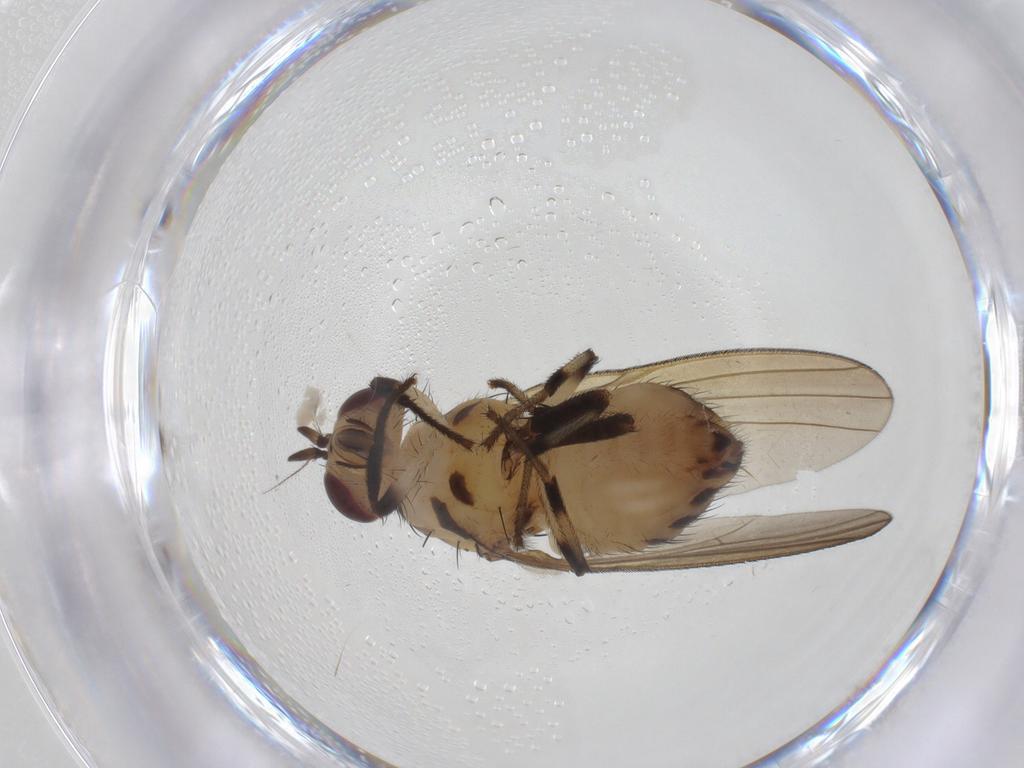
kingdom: Animalia
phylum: Arthropoda
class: Insecta
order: Diptera
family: Lauxaniidae
